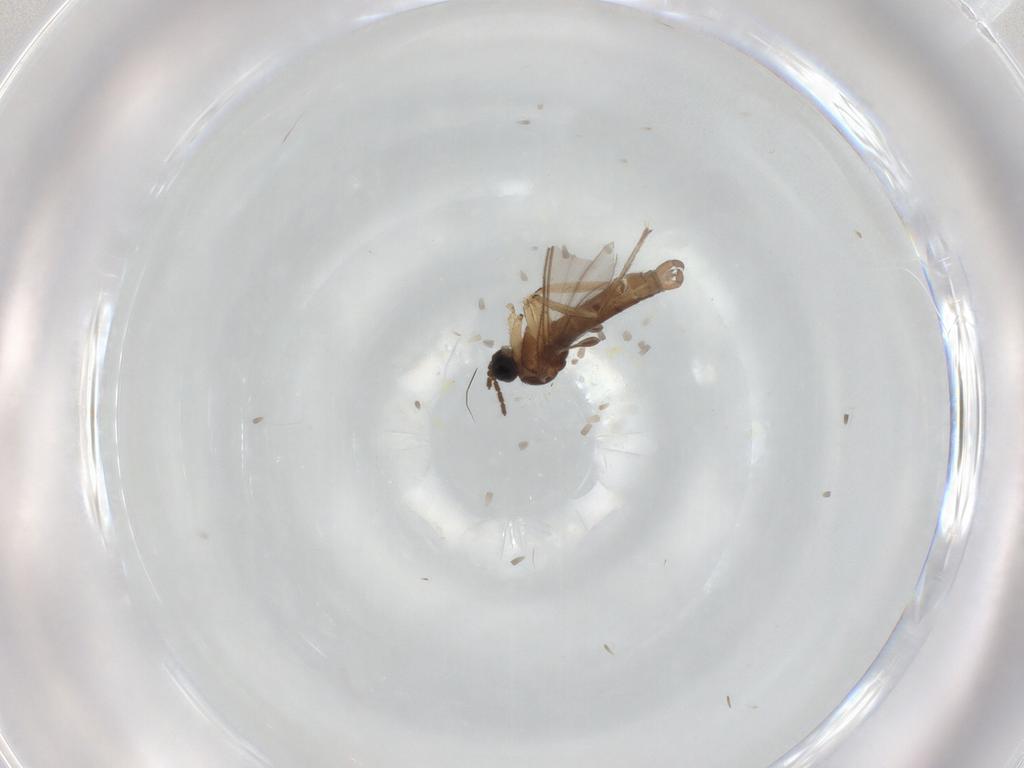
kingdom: Animalia
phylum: Arthropoda
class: Insecta
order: Diptera
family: Sciaridae
